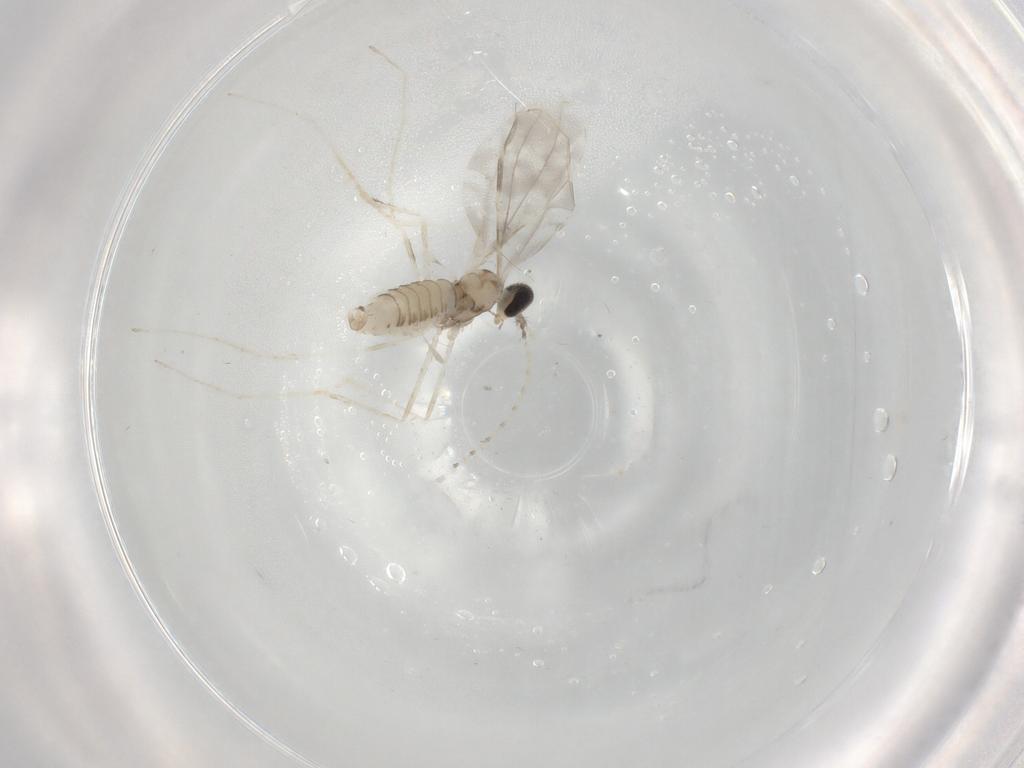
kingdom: Animalia
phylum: Arthropoda
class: Insecta
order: Diptera
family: Cecidomyiidae
